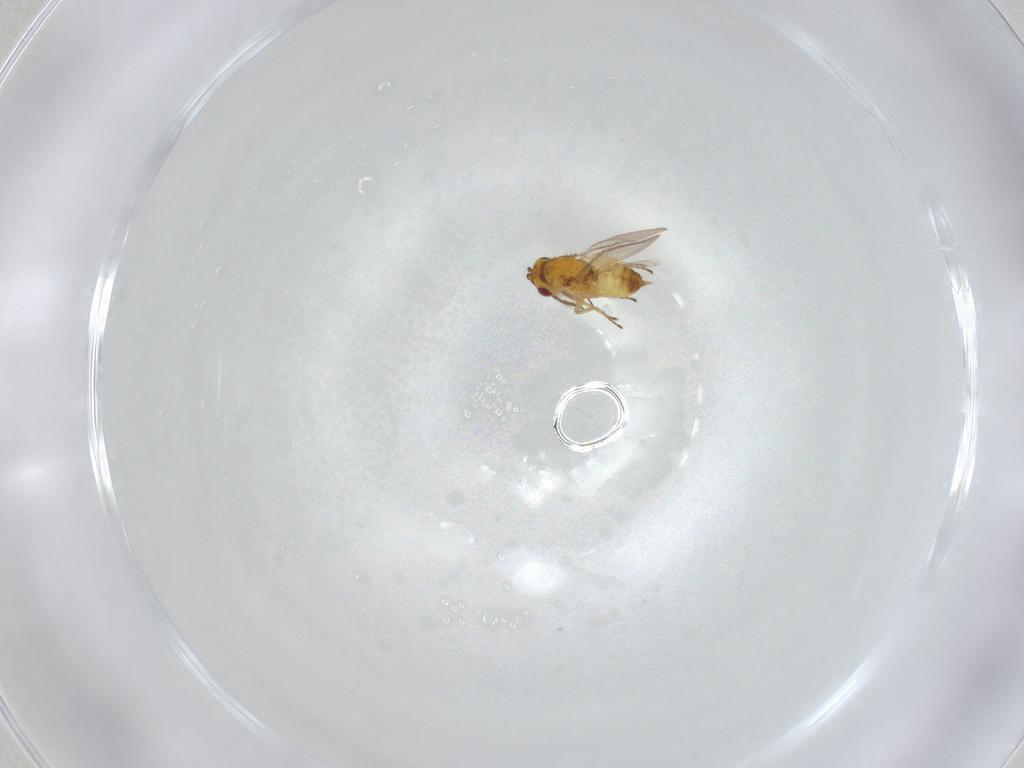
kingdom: Animalia
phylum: Arthropoda
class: Insecta
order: Hymenoptera
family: Eulophidae
